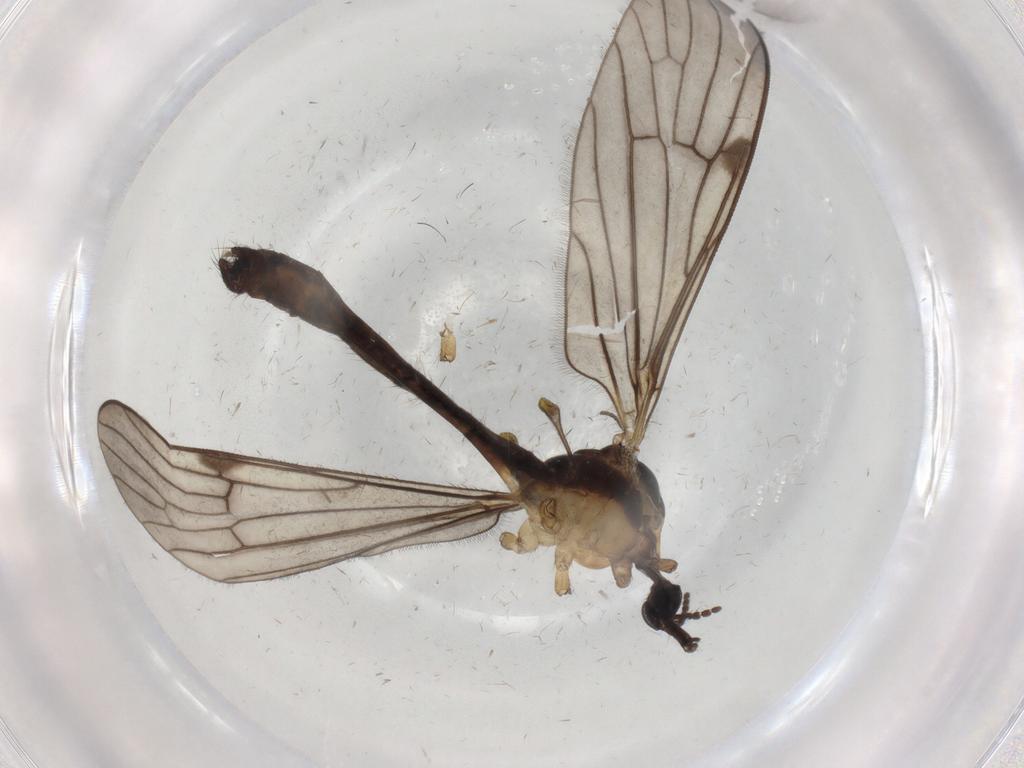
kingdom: Animalia
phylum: Arthropoda
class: Insecta
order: Diptera
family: Limoniidae
